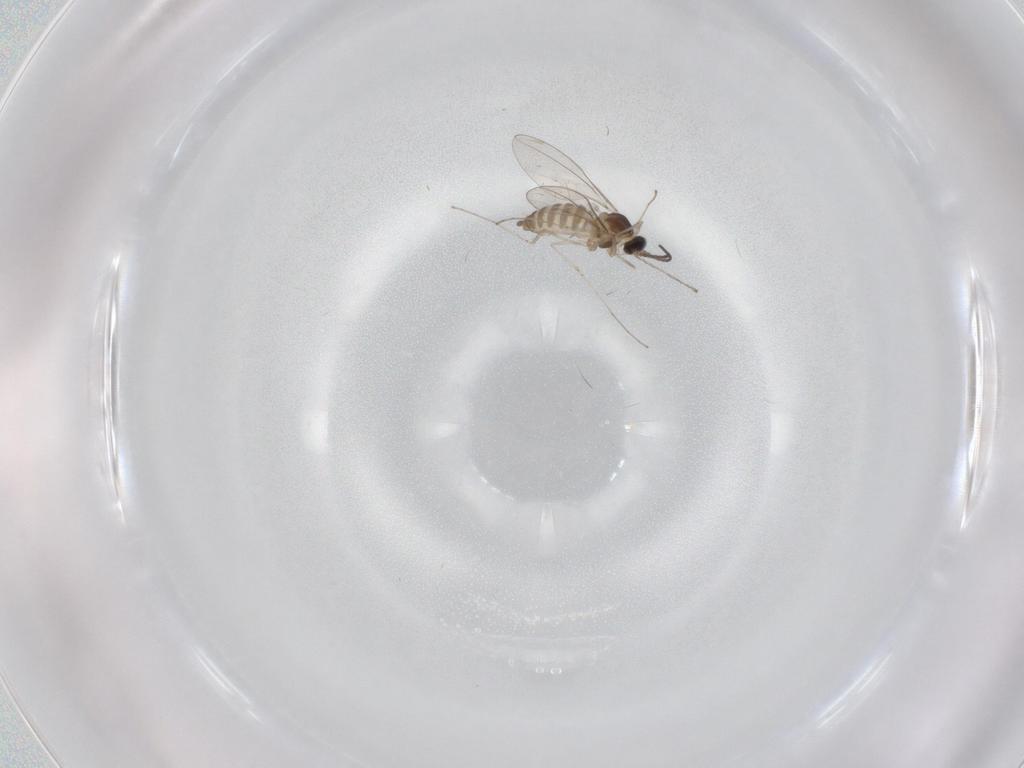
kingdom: Animalia
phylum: Arthropoda
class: Insecta
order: Diptera
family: Cecidomyiidae
